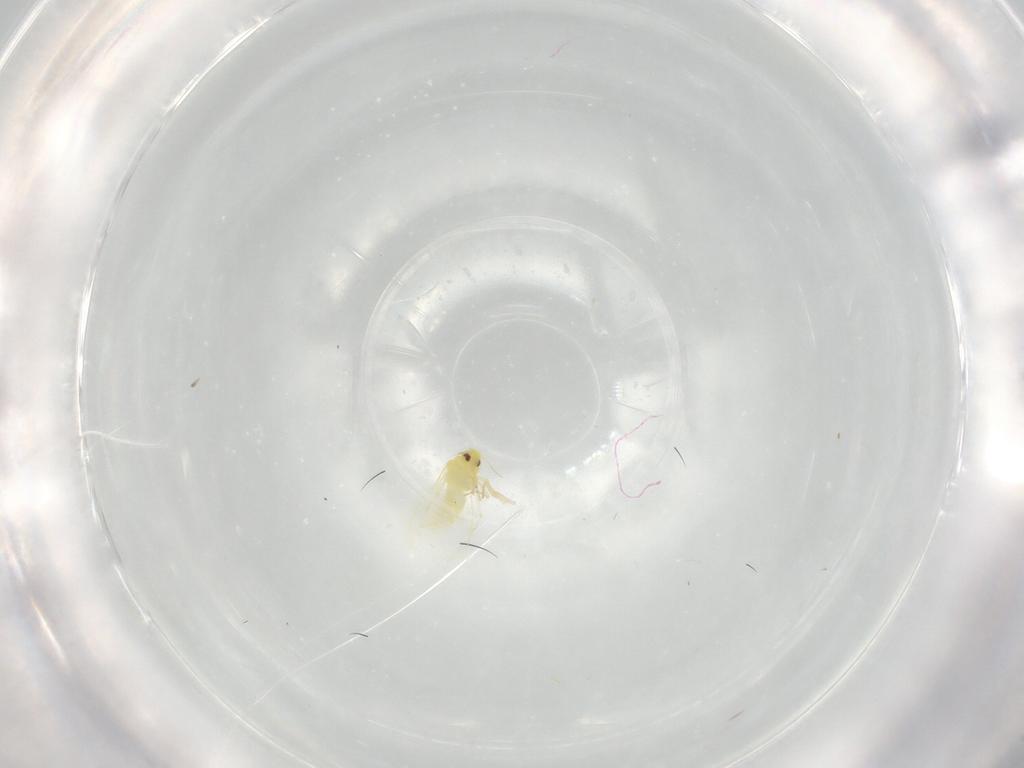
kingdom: Animalia
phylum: Arthropoda
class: Insecta
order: Hemiptera
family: Aleyrodidae
